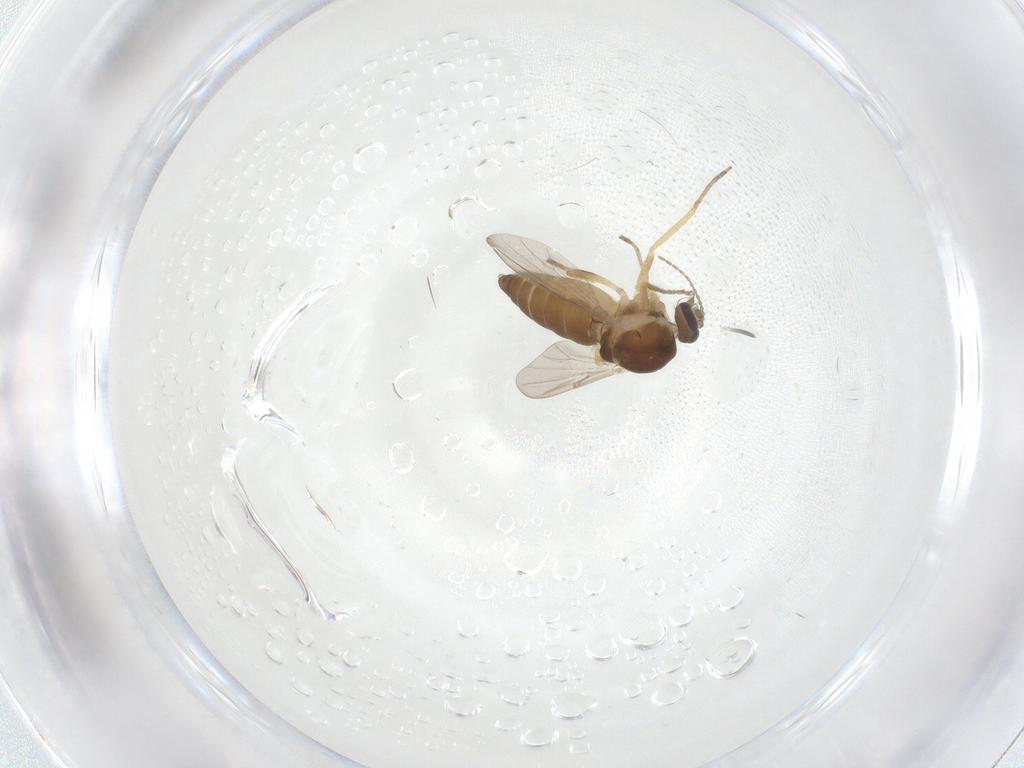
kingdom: Animalia
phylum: Arthropoda
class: Insecta
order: Diptera
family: Ceratopogonidae
